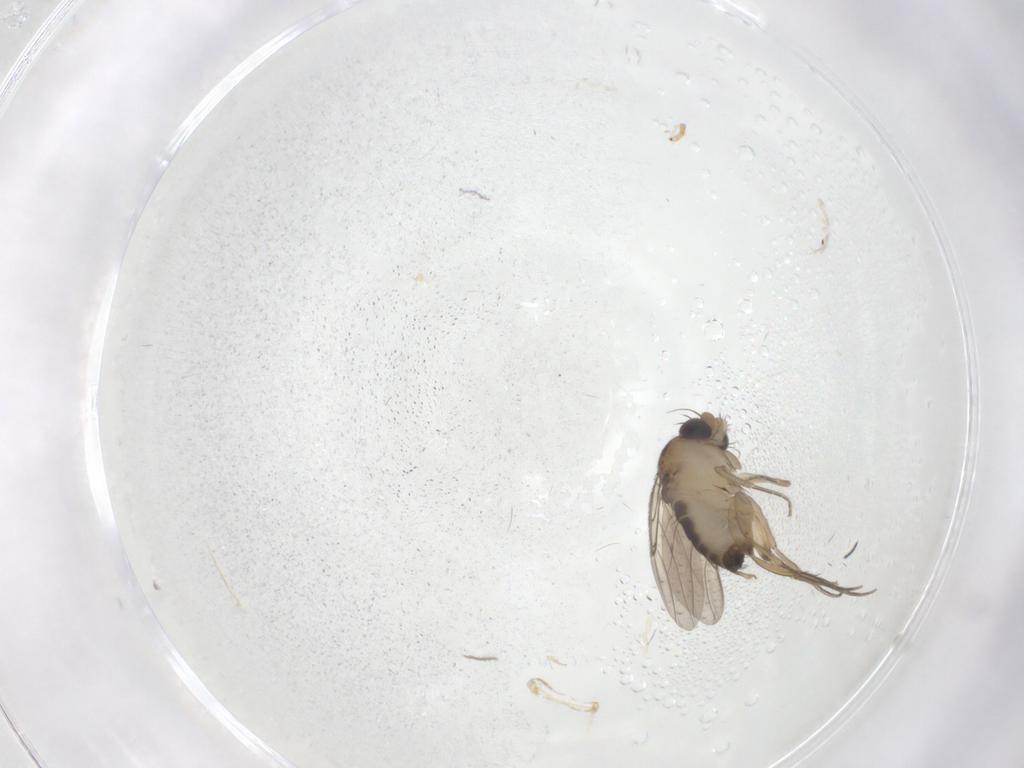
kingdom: Animalia
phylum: Arthropoda
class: Insecta
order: Diptera
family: Phoridae
